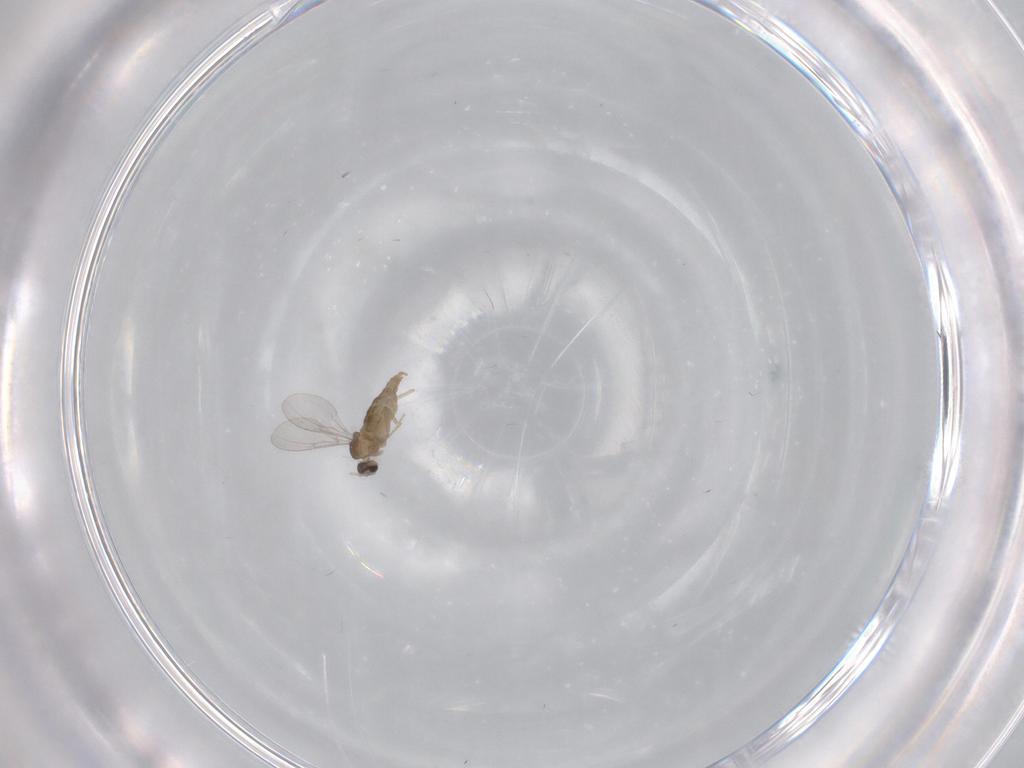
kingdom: Animalia
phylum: Arthropoda
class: Insecta
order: Diptera
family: Cecidomyiidae
